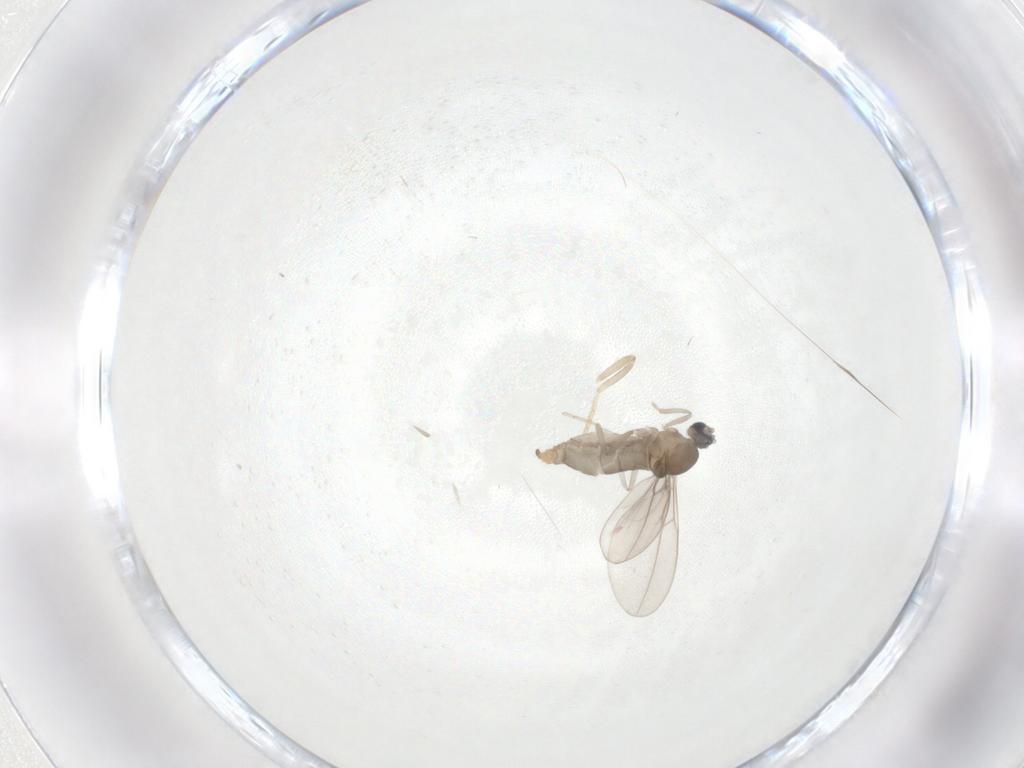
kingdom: Animalia
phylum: Arthropoda
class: Insecta
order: Diptera
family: Cecidomyiidae
